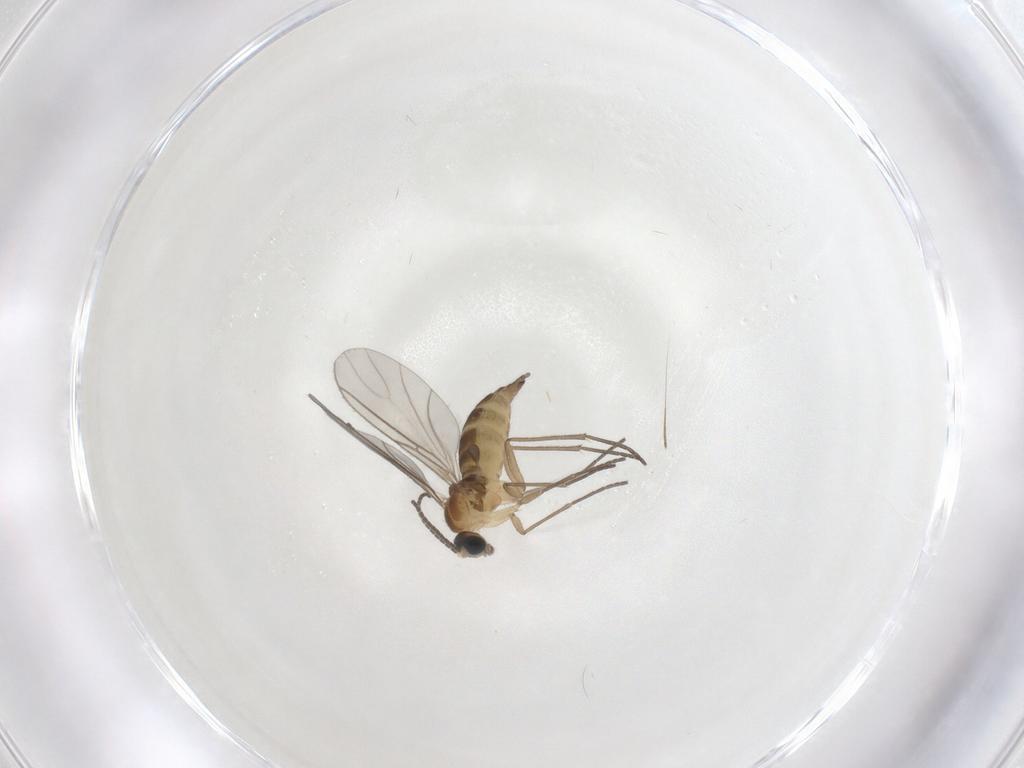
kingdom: Animalia
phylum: Arthropoda
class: Insecta
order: Diptera
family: Sciaridae
